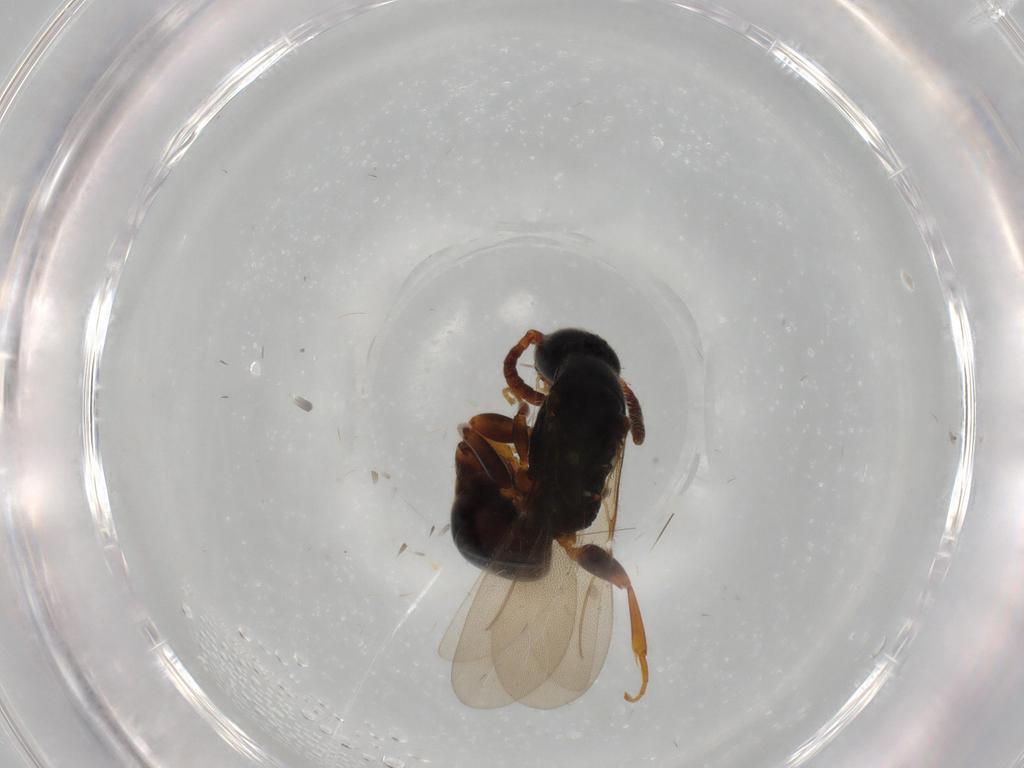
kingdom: Animalia
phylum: Arthropoda
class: Insecta
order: Hymenoptera
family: Bethylidae
